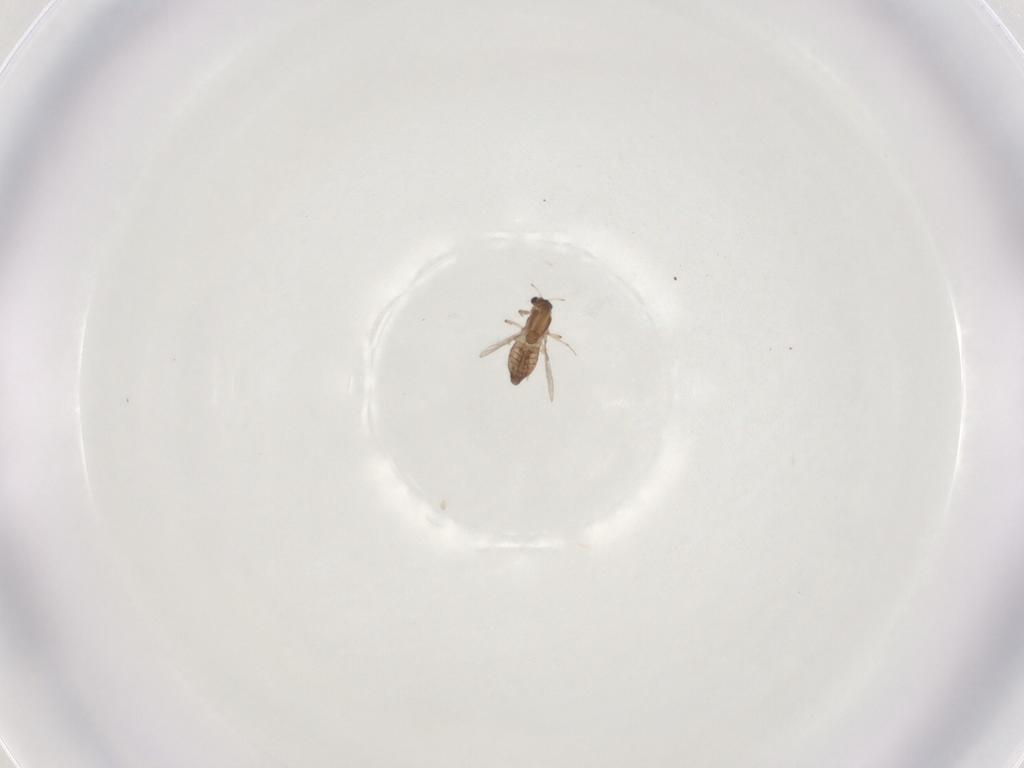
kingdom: Animalia
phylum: Arthropoda
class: Insecta
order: Diptera
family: Chironomidae
